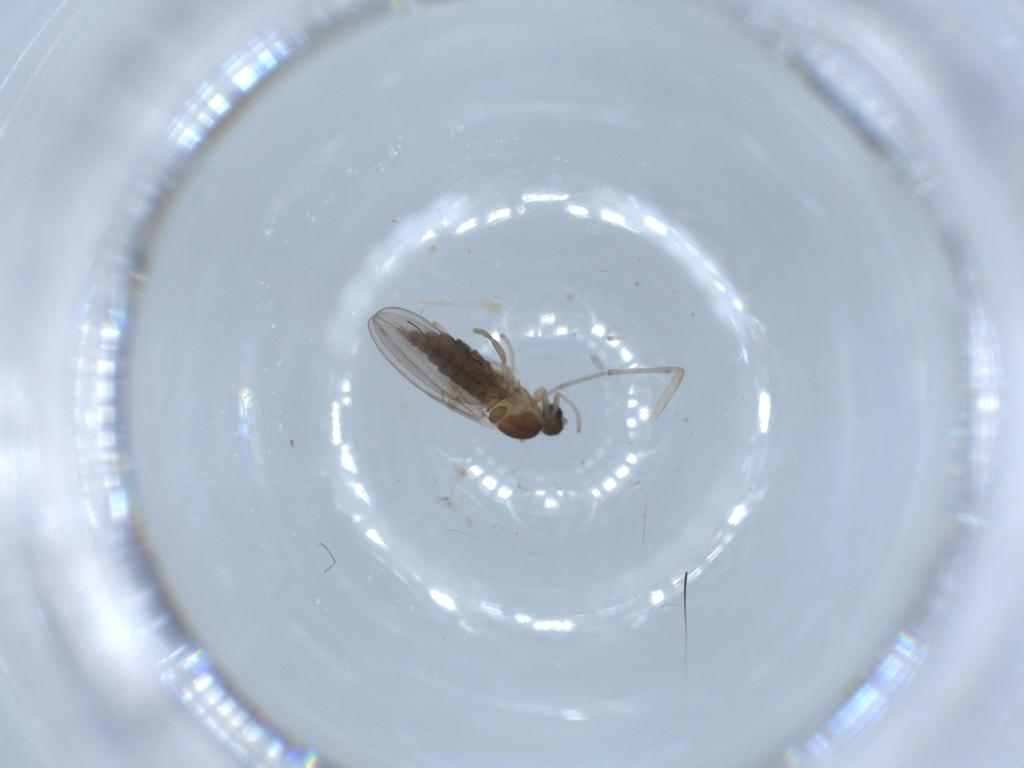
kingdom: Animalia
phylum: Arthropoda
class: Insecta
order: Diptera
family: Cecidomyiidae
